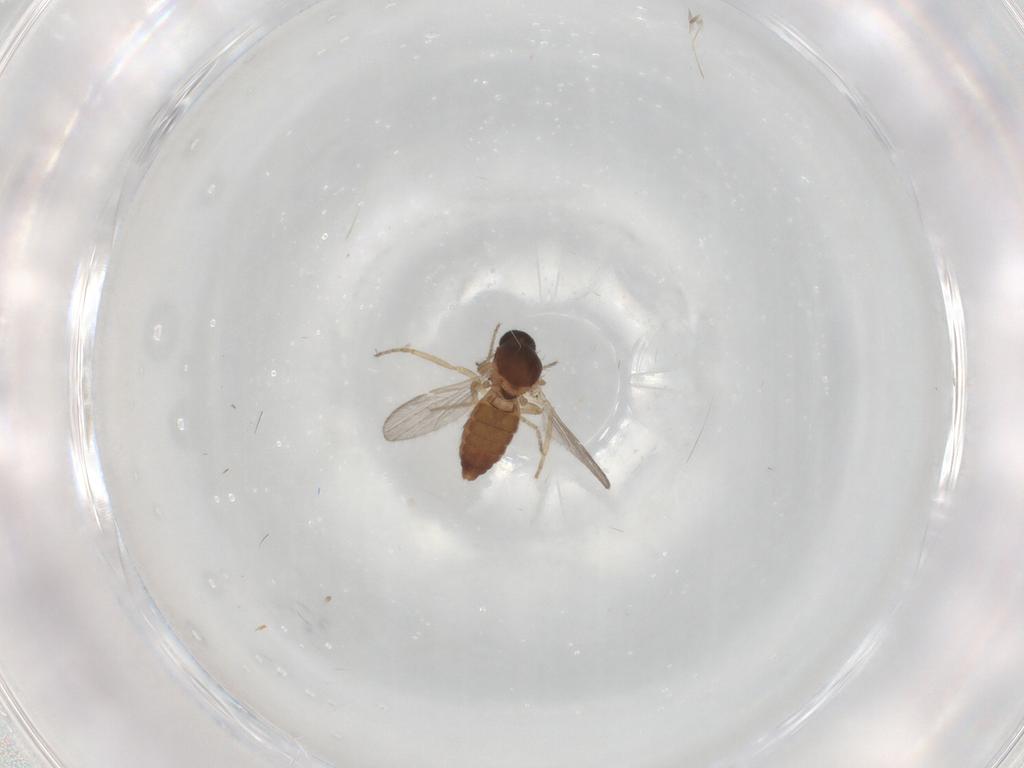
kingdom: Animalia
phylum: Arthropoda
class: Insecta
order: Diptera
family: Ceratopogonidae
